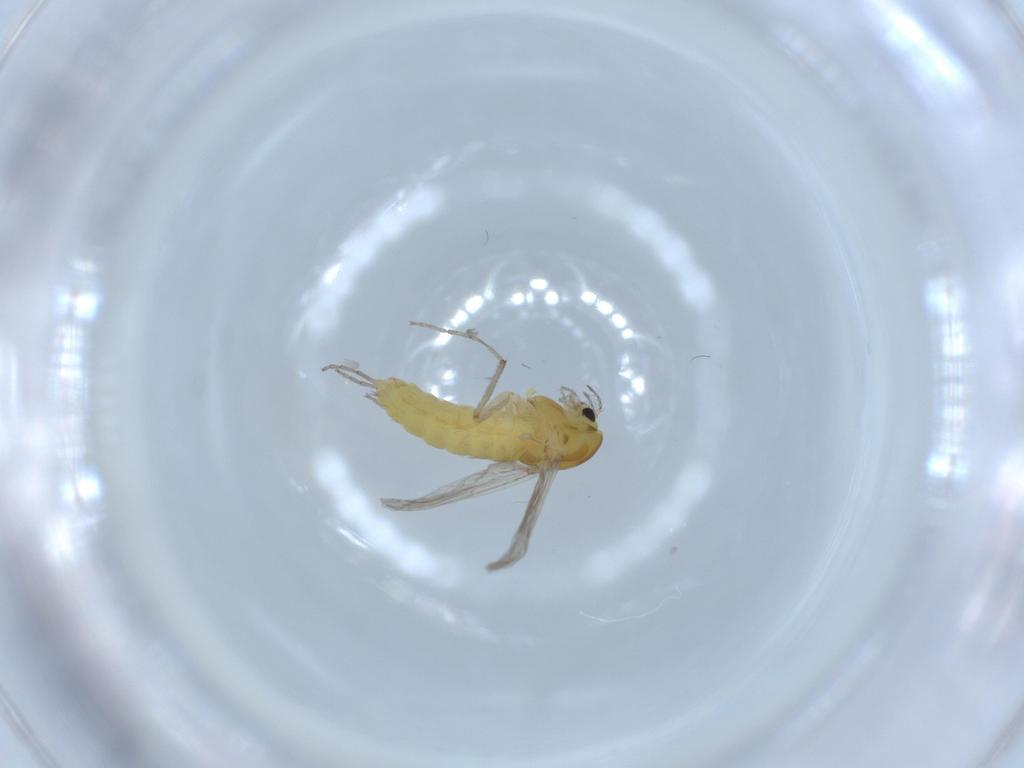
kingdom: Animalia
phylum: Arthropoda
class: Insecta
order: Diptera
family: Chironomidae
